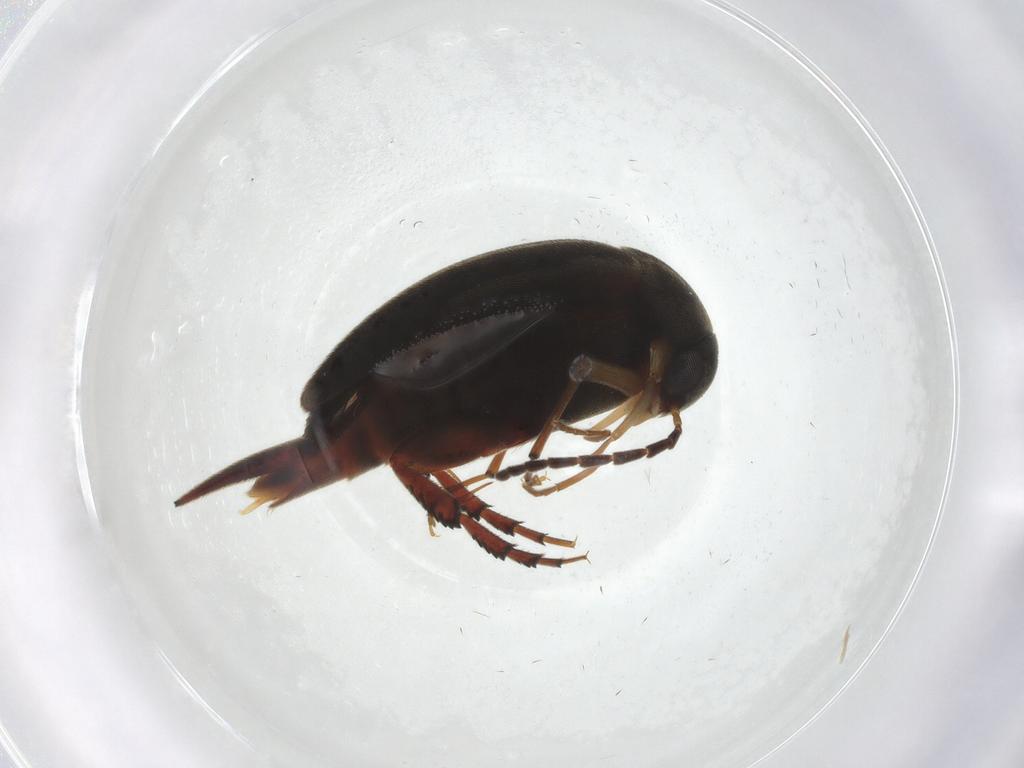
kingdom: Animalia
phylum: Arthropoda
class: Insecta
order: Coleoptera
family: Mordellidae
